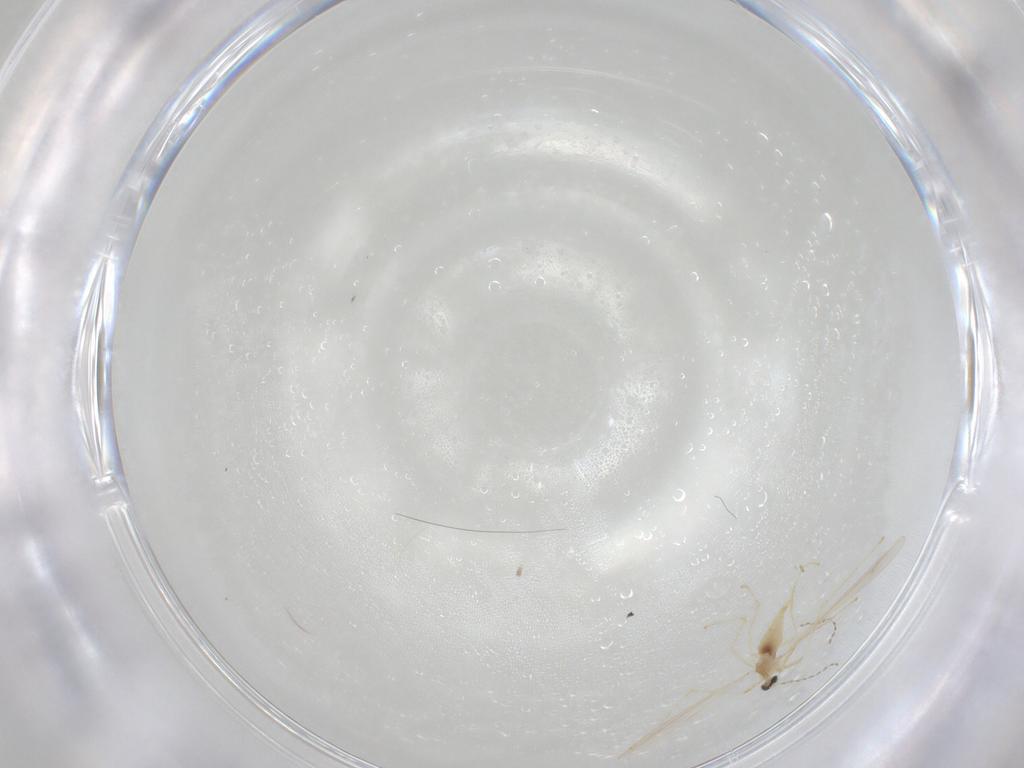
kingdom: Animalia
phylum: Arthropoda
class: Insecta
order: Diptera
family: Cecidomyiidae
